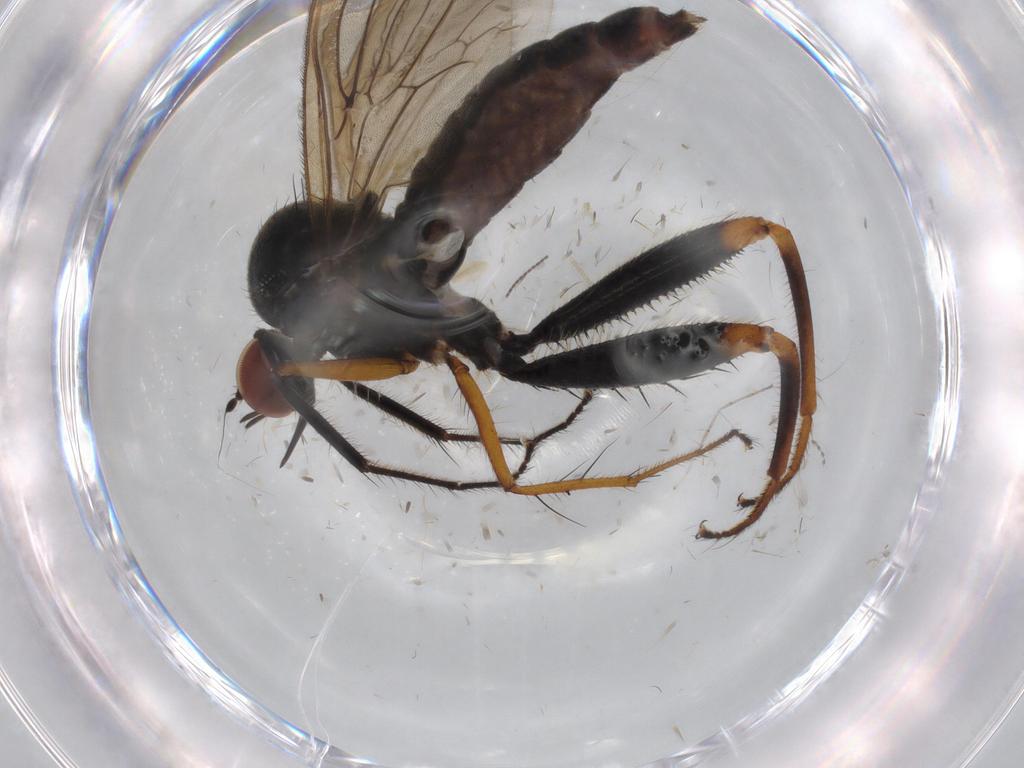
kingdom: Animalia
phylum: Arthropoda
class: Insecta
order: Diptera
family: Hybotidae
